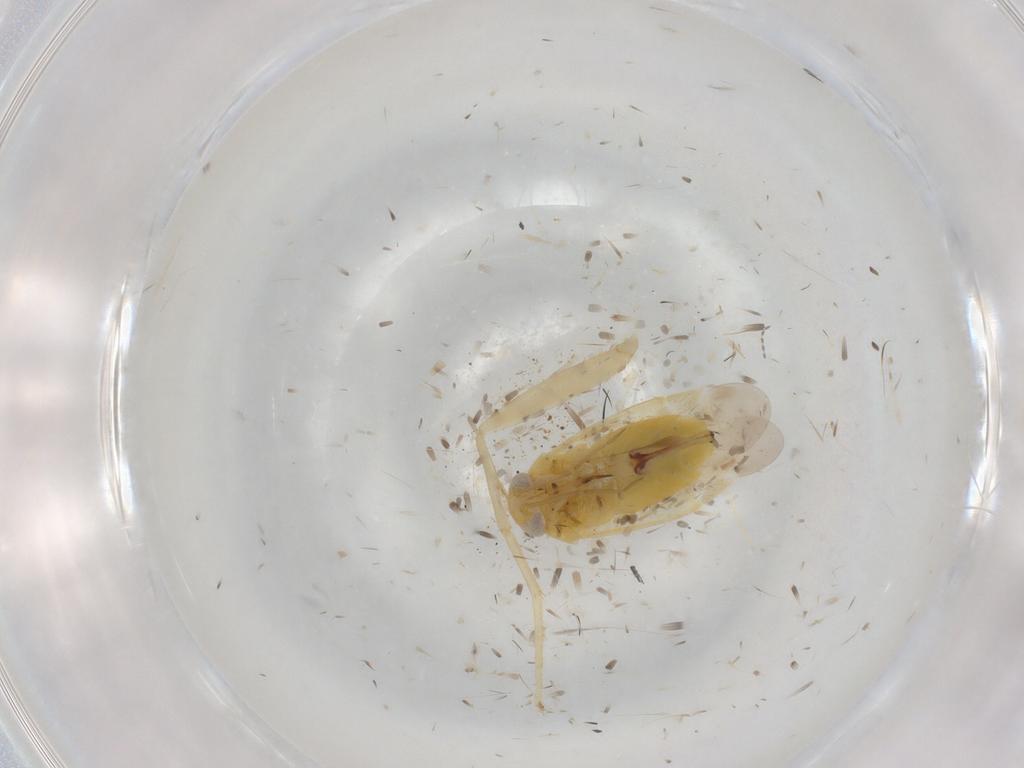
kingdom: Animalia
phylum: Arthropoda
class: Insecta
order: Hemiptera
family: Miridae
